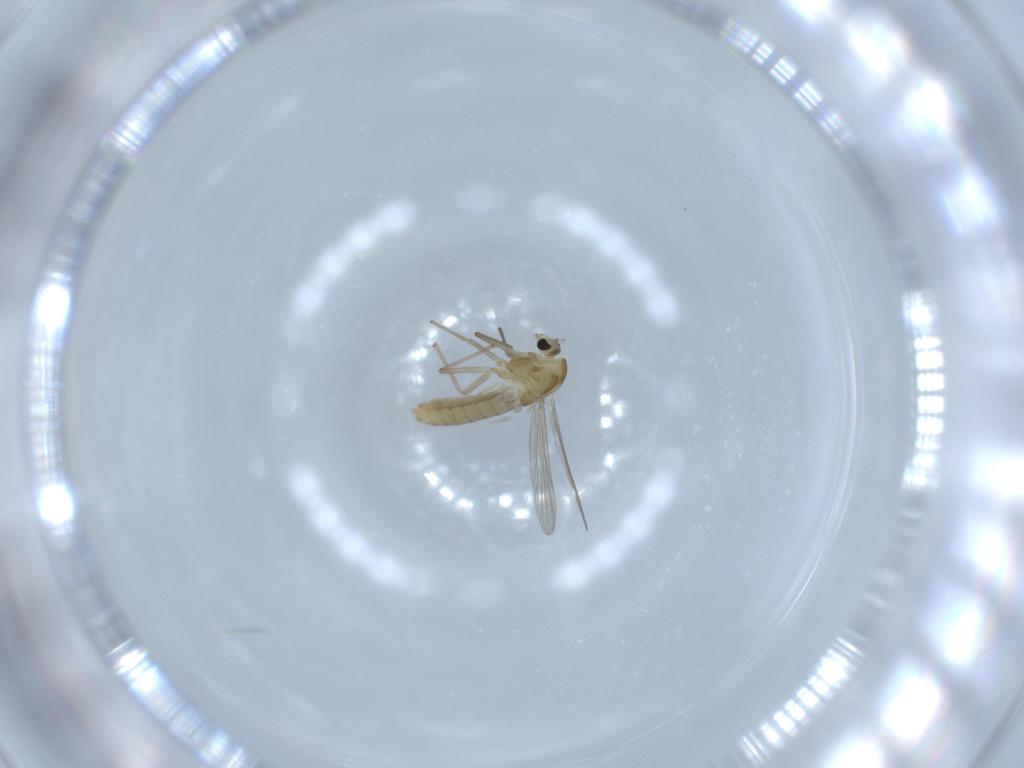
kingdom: Animalia
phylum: Arthropoda
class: Insecta
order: Diptera
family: Chironomidae
